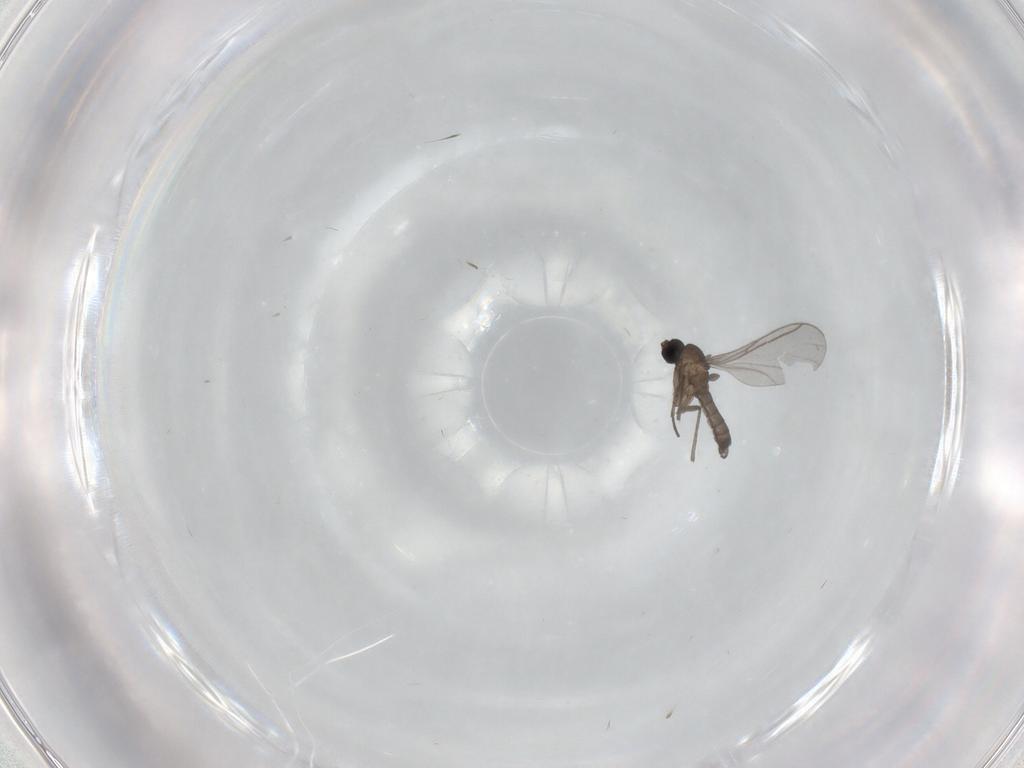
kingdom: Animalia
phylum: Arthropoda
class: Insecta
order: Diptera
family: Chironomidae
